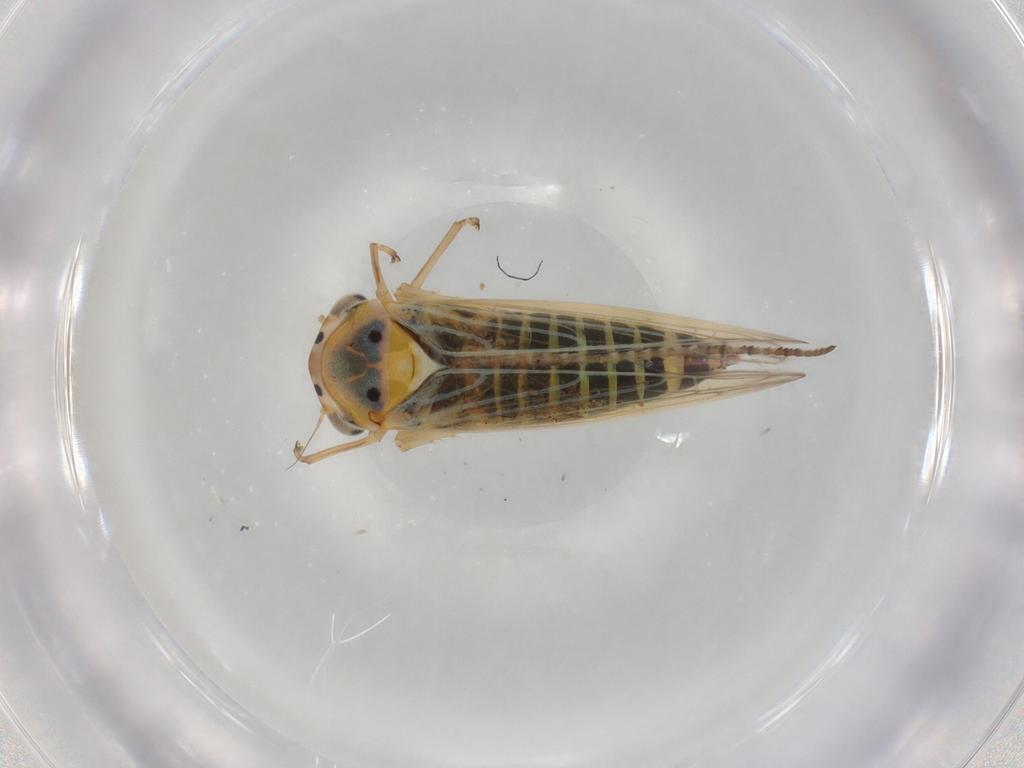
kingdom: Animalia
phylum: Arthropoda
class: Insecta
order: Hemiptera
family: Cicadellidae
